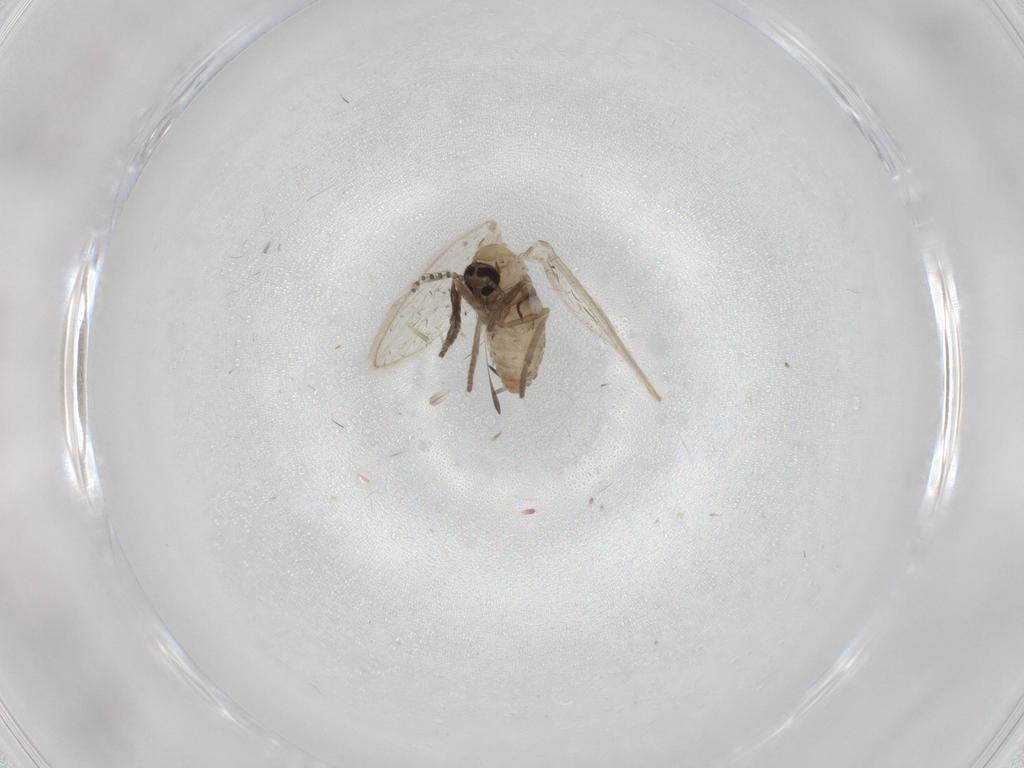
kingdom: Animalia
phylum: Arthropoda
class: Insecta
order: Diptera
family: Psychodidae
